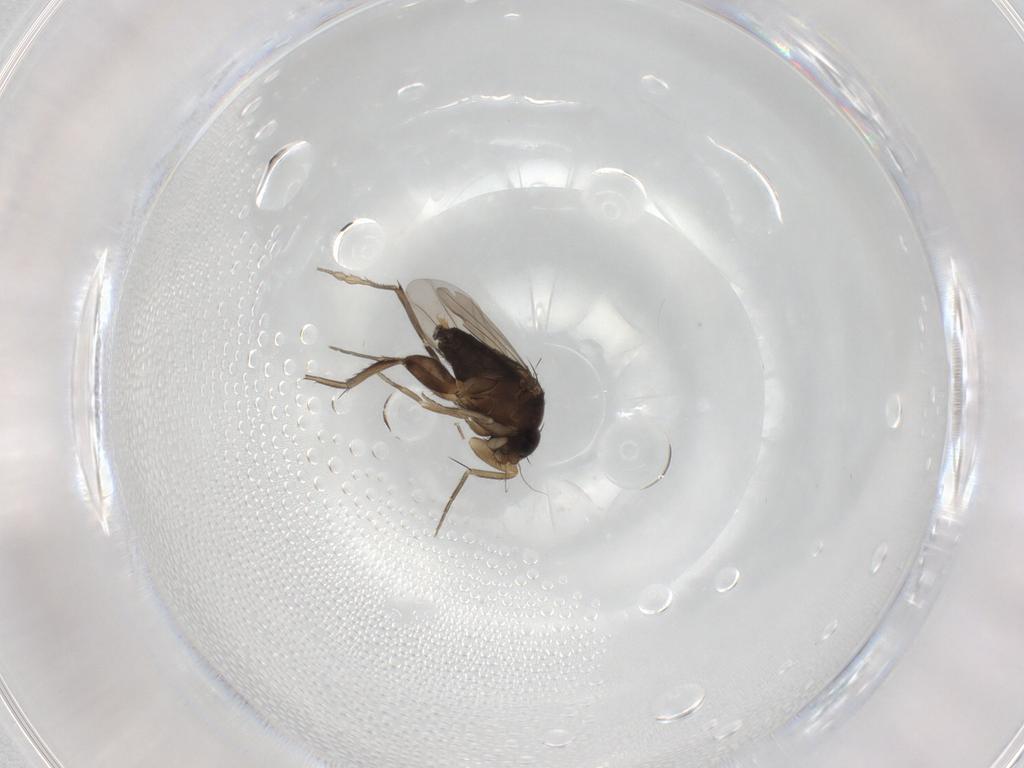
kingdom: Animalia
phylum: Arthropoda
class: Insecta
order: Diptera
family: Phoridae
